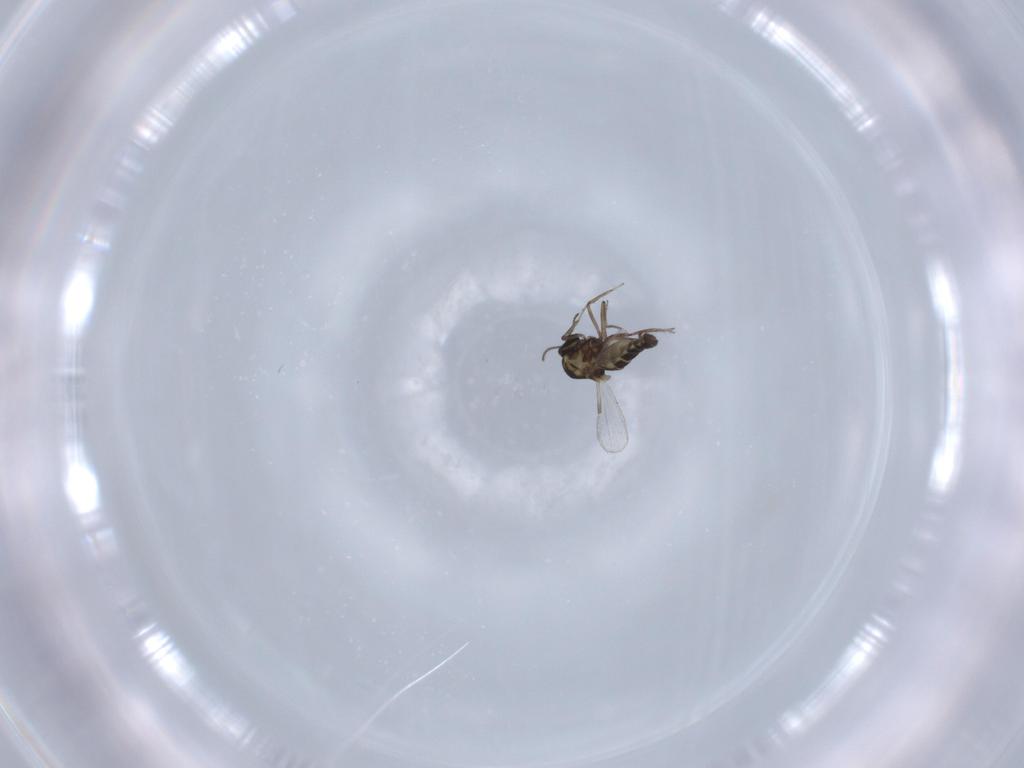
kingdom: Animalia
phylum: Arthropoda
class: Insecta
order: Diptera
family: Ceratopogonidae
